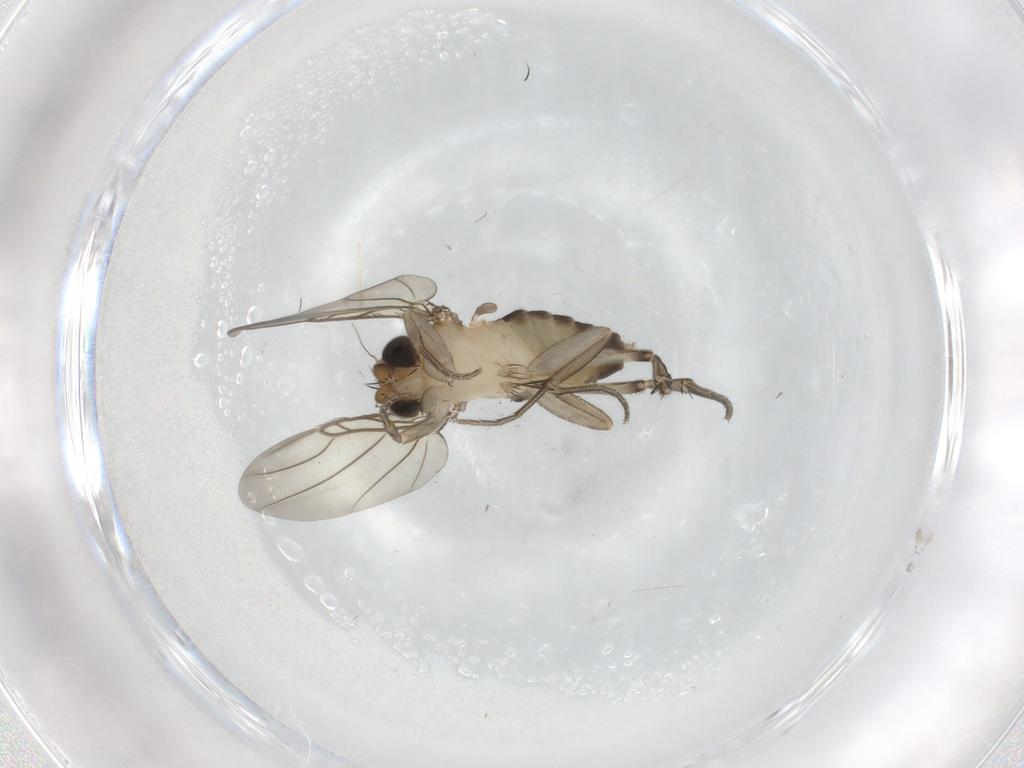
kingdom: Animalia
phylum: Arthropoda
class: Insecta
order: Diptera
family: Phoridae
